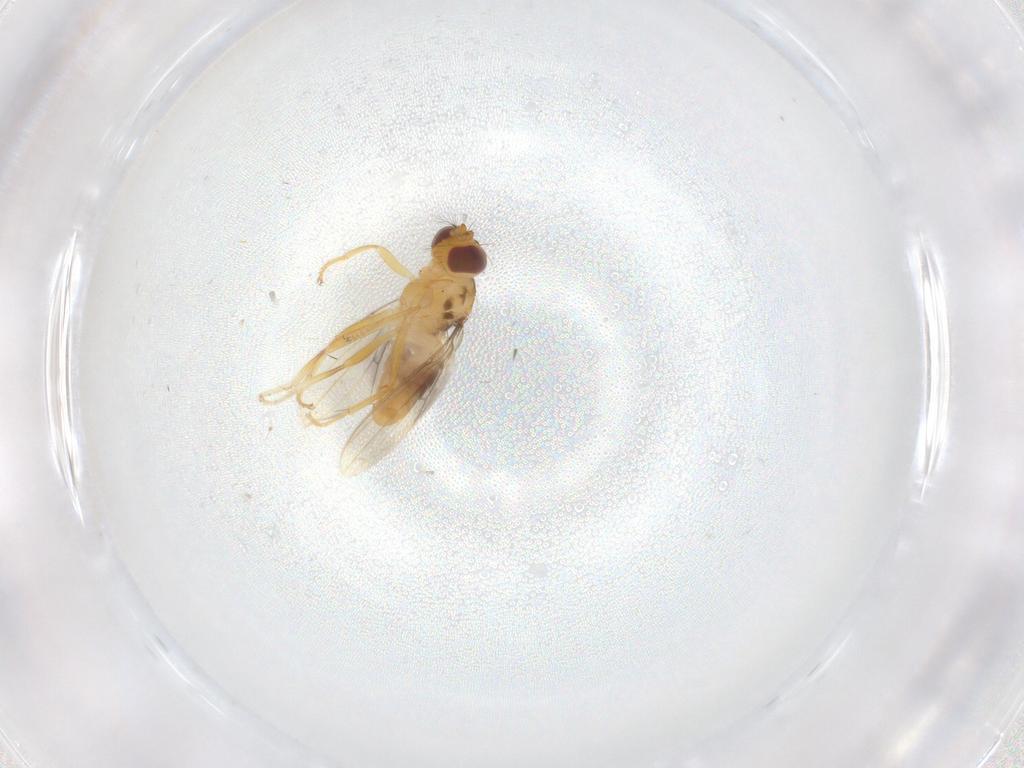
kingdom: Animalia
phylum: Arthropoda
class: Insecta
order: Diptera
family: Periscelididae
